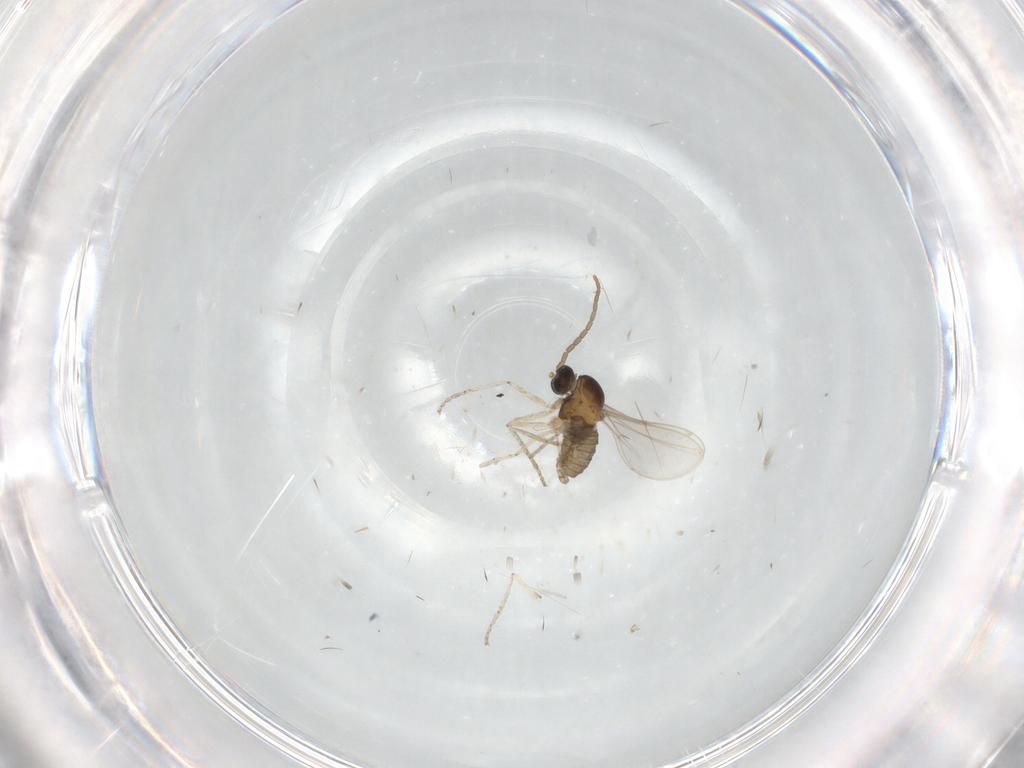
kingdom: Animalia
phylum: Arthropoda
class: Insecta
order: Diptera
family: Cecidomyiidae
